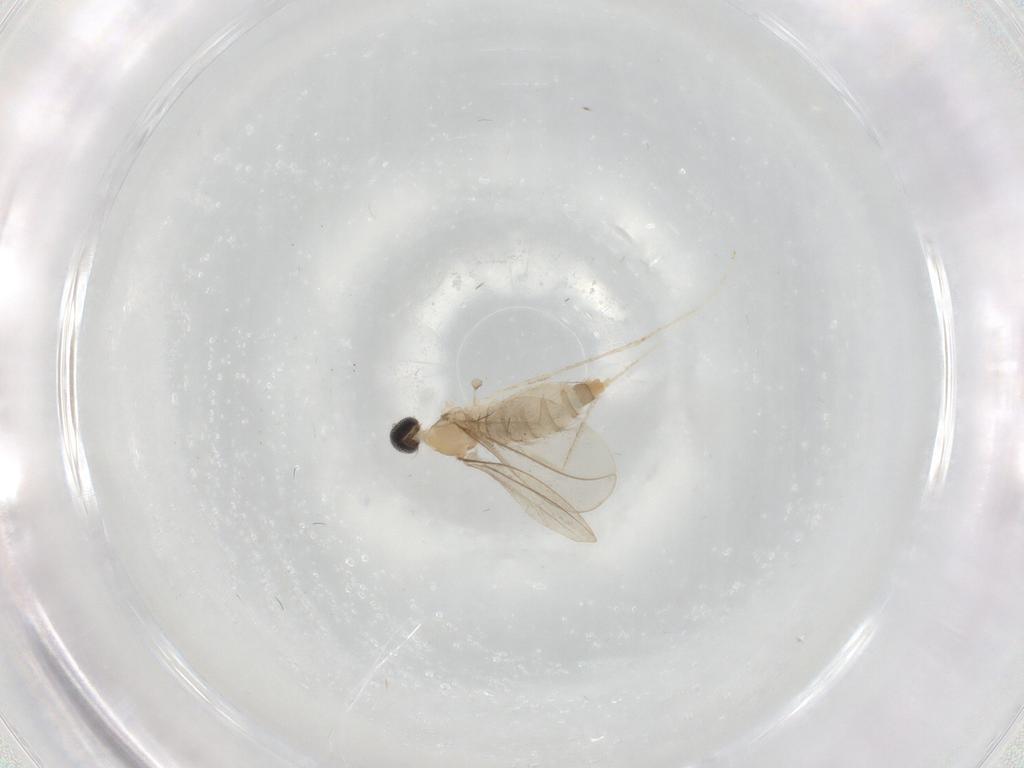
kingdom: Animalia
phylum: Arthropoda
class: Insecta
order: Diptera
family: Cecidomyiidae
